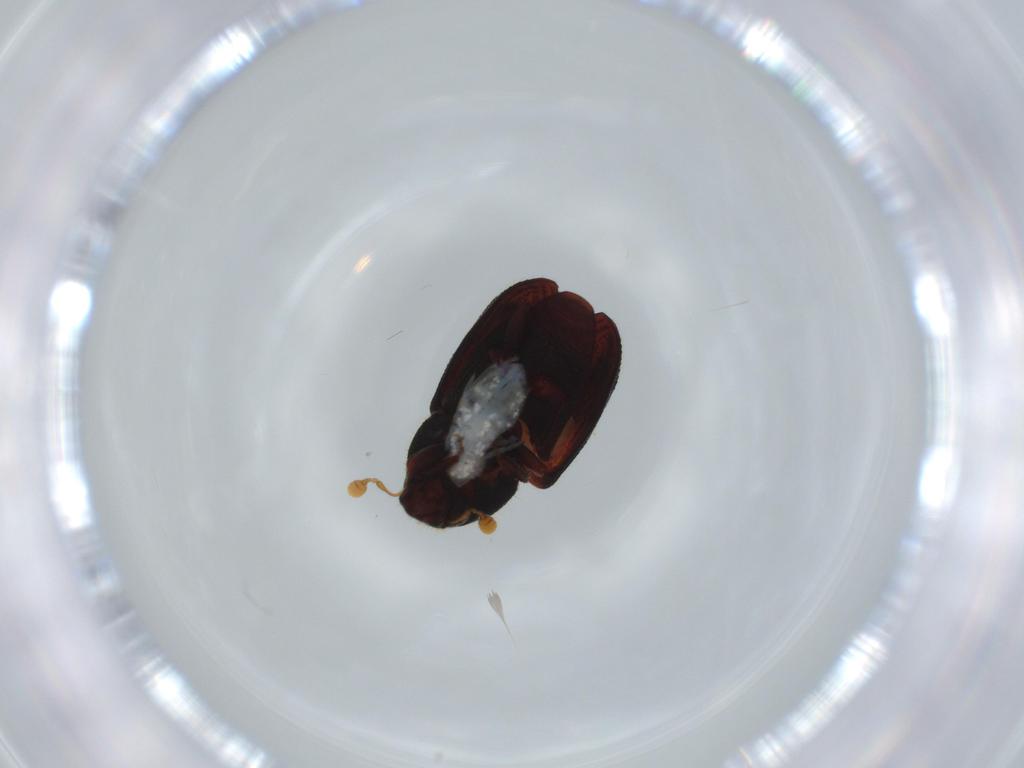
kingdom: Animalia
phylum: Arthropoda
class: Insecta
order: Coleoptera
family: Curculionidae
